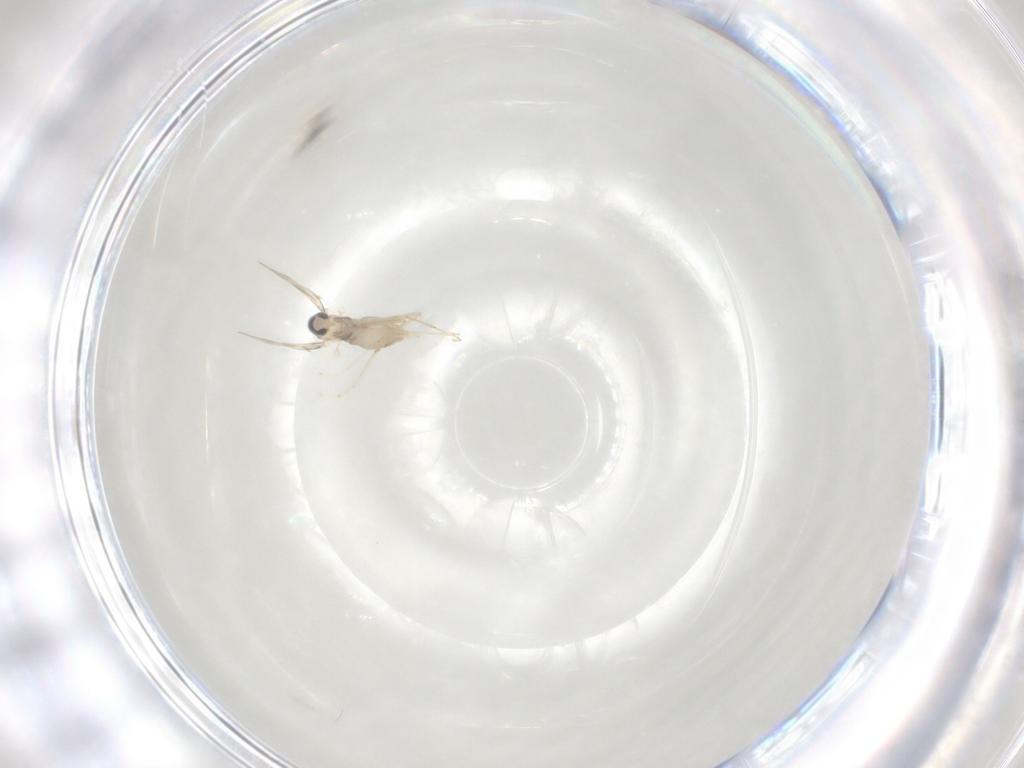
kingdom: Animalia
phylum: Arthropoda
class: Insecta
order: Diptera
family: Cecidomyiidae
